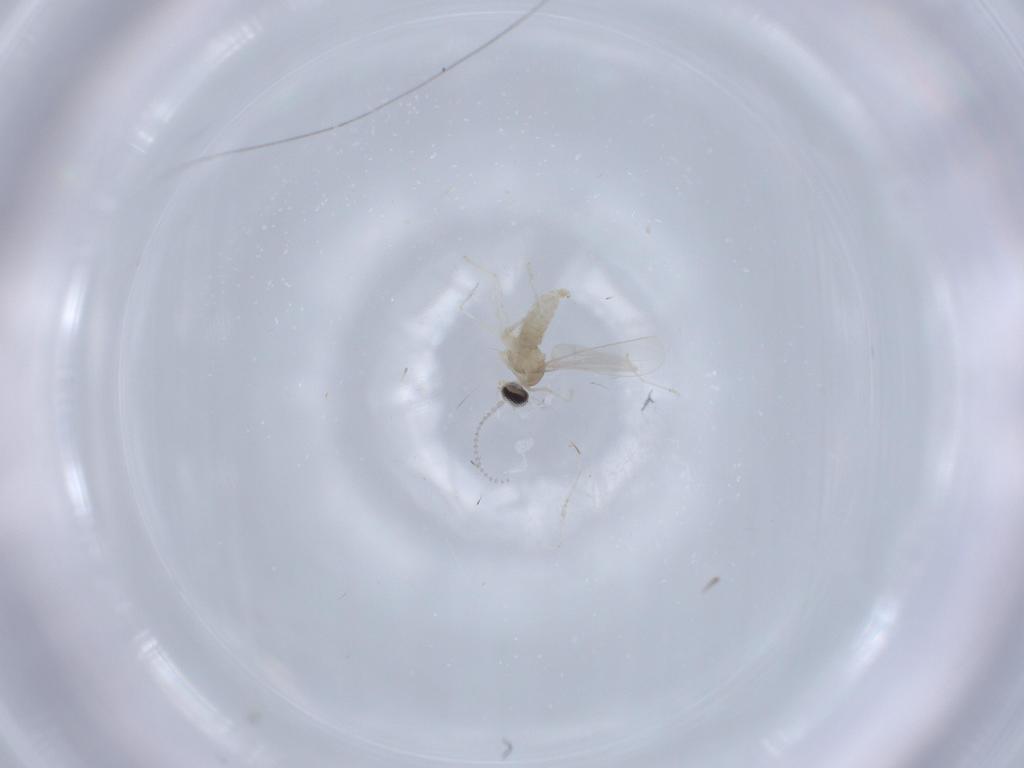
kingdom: Animalia
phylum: Arthropoda
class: Insecta
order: Diptera
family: Cecidomyiidae
